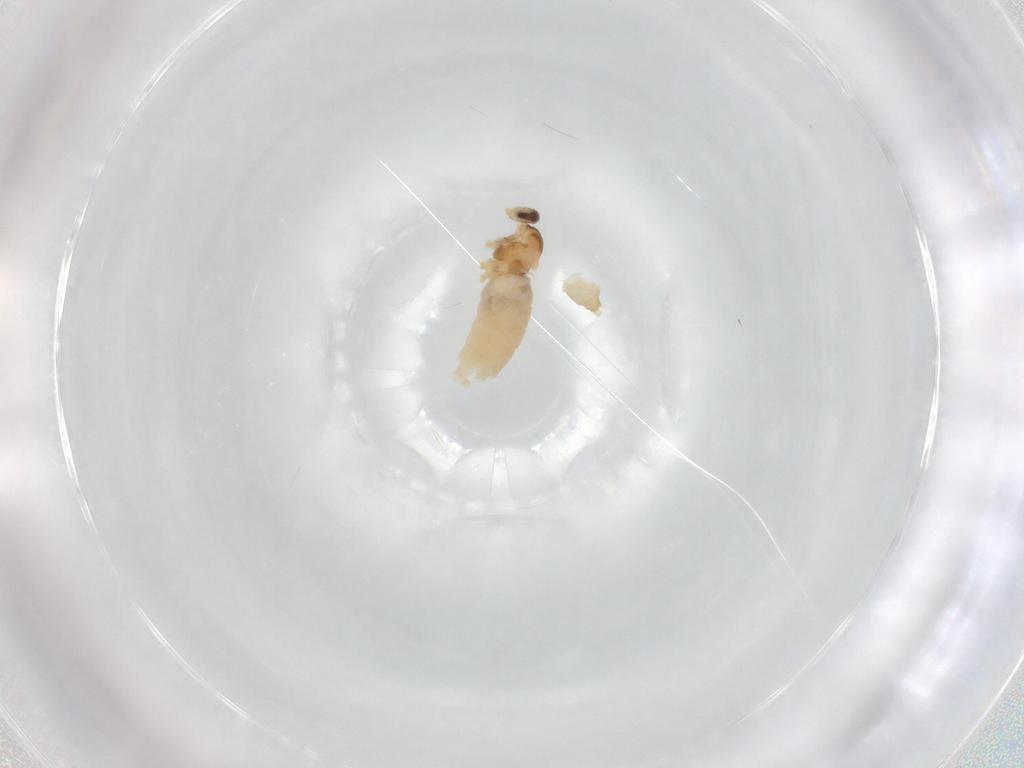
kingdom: Animalia
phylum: Arthropoda
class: Insecta
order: Diptera
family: Cecidomyiidae
